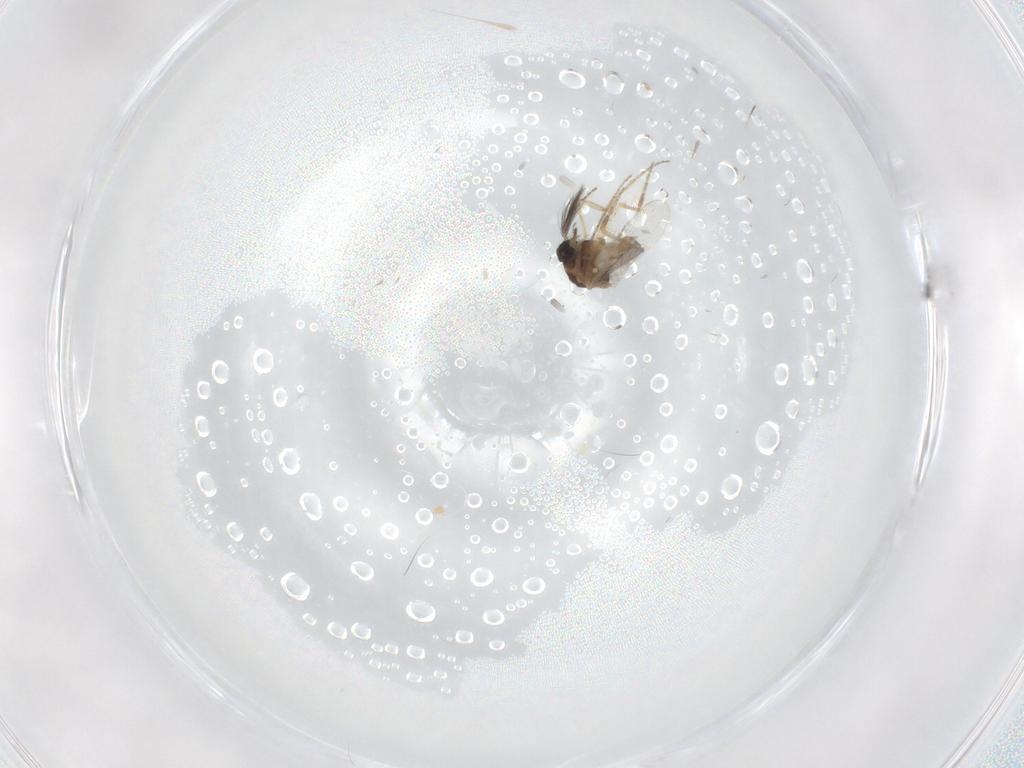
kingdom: Animalia
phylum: Arthropoda
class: Insecta
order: Diptera
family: Ceratopogonidae
